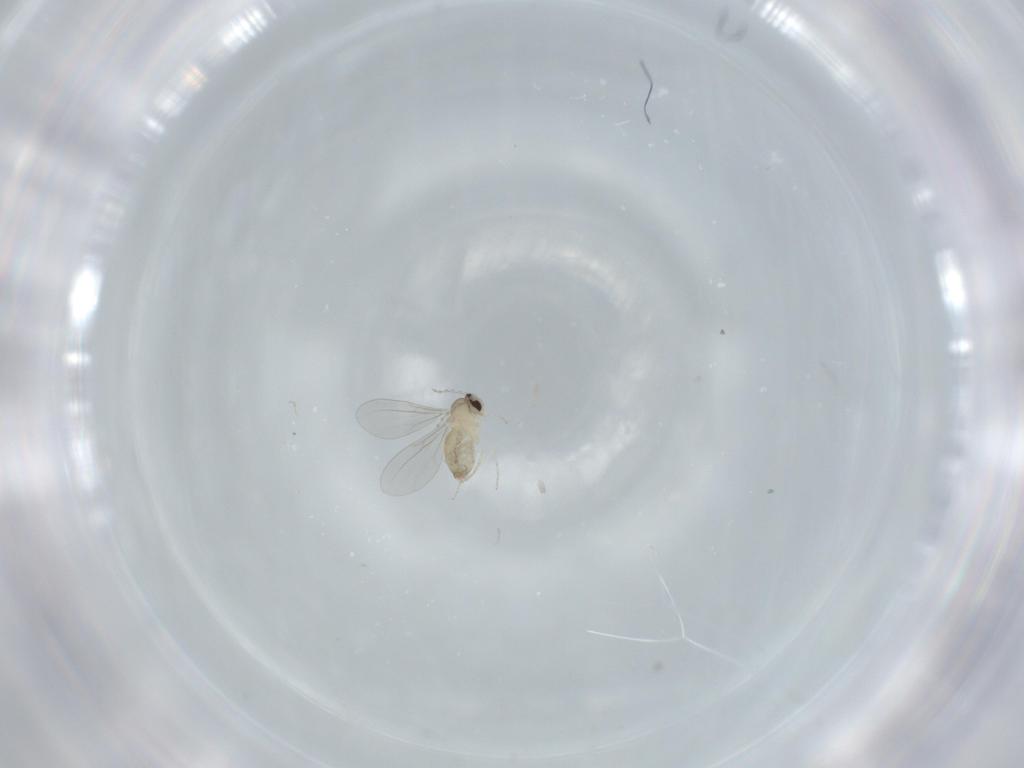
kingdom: Animalia
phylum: Arthropoda
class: Insecta
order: Diptera
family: Cecidomyiidae
